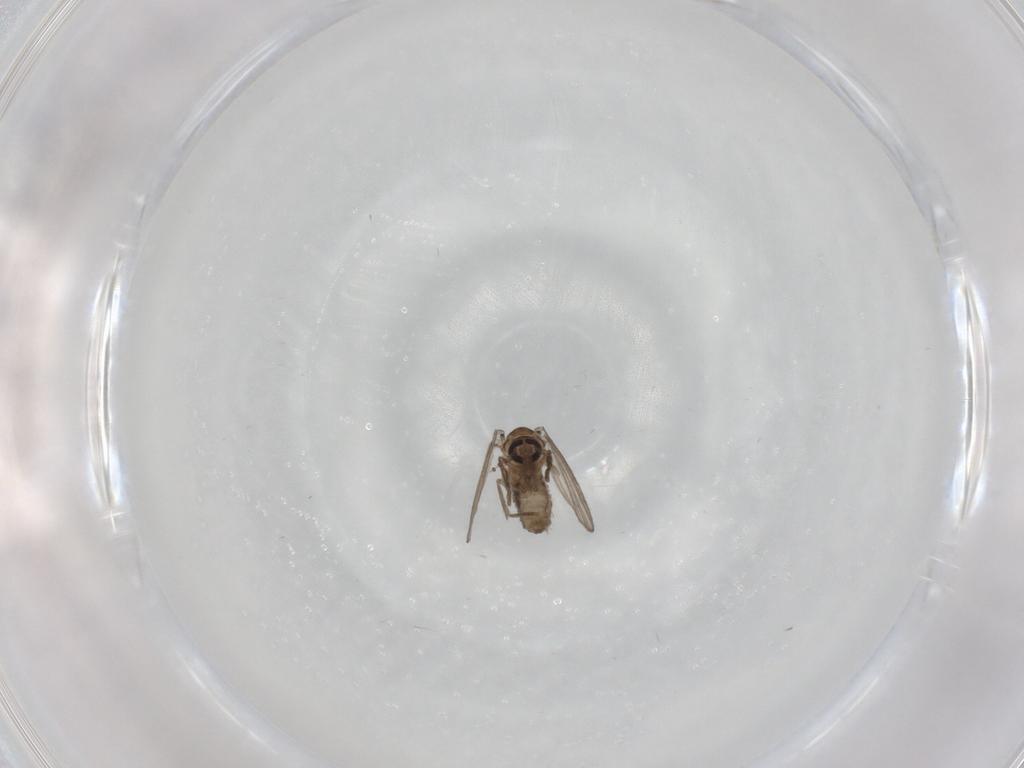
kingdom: Animalia
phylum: Arthropoda
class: Insecta
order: Diptera
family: Psychodidae
